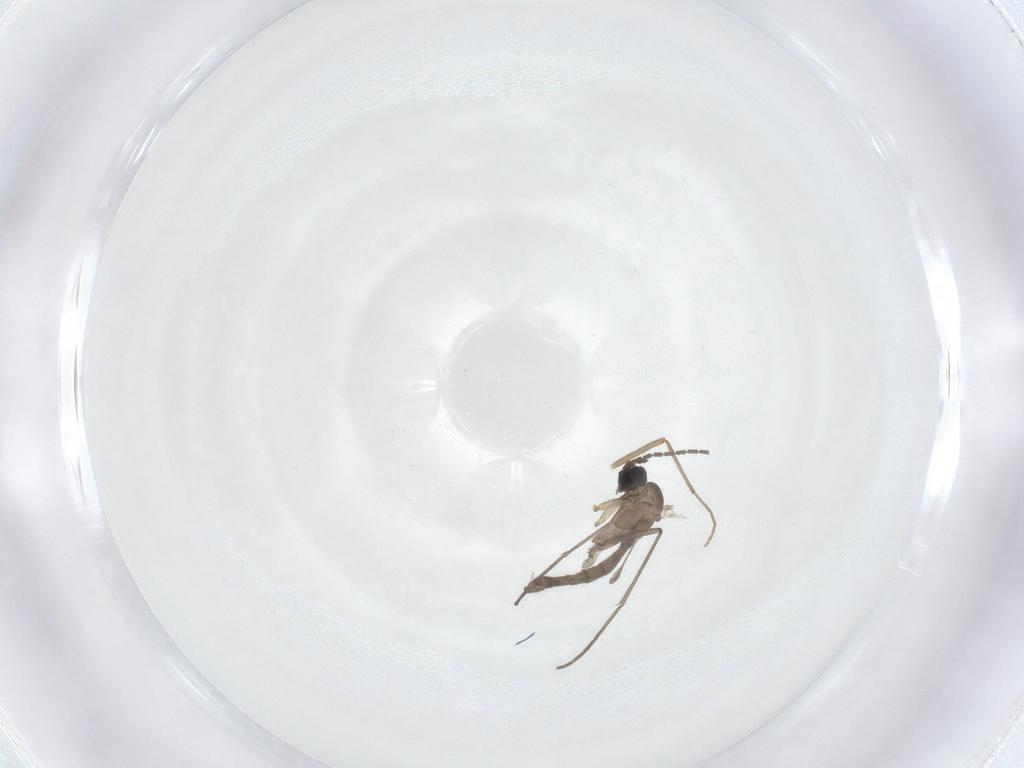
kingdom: Animalia
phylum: Arthropoda
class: Insecta
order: Diptera
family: Sciaridae
